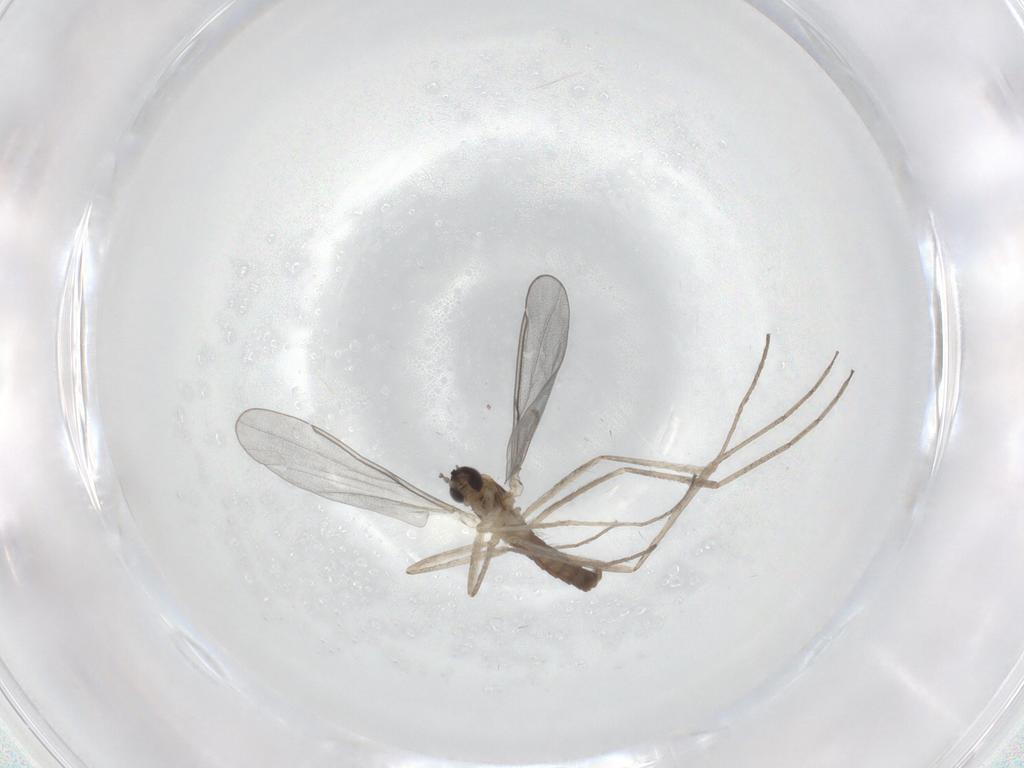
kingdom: Animalia
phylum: Arthropoda
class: Insecta
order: Diptera
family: Cecidomyiidae
